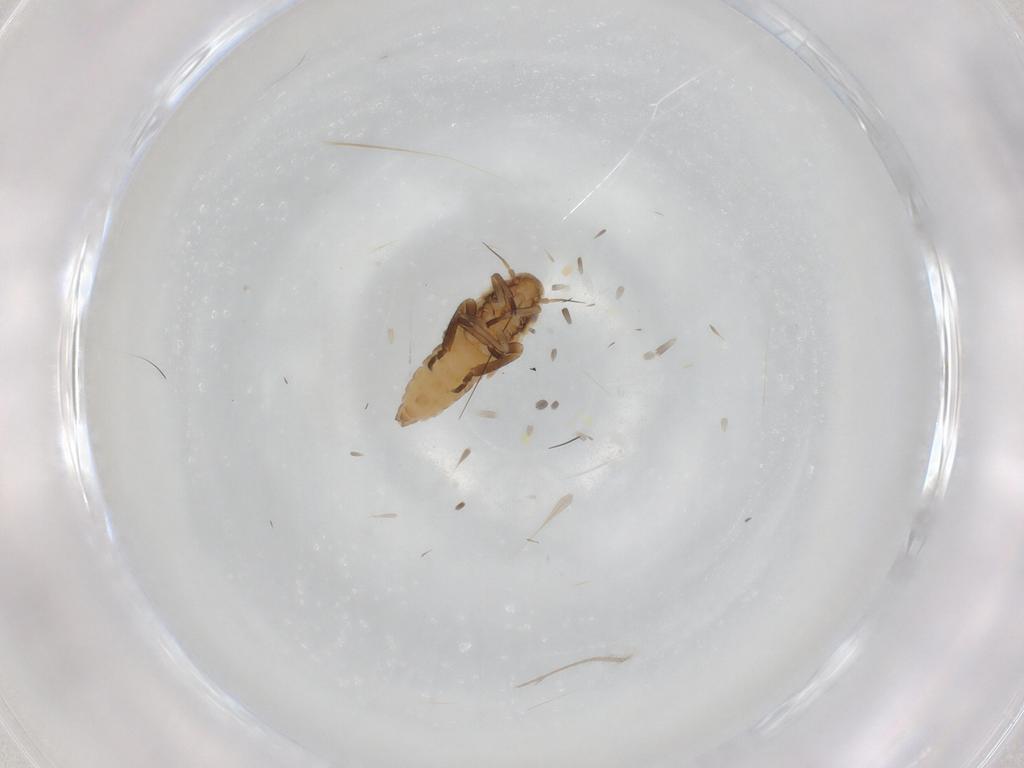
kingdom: Animalia
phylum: Arthropoda
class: Insecta
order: Hemiptera
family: Cicadellidae
